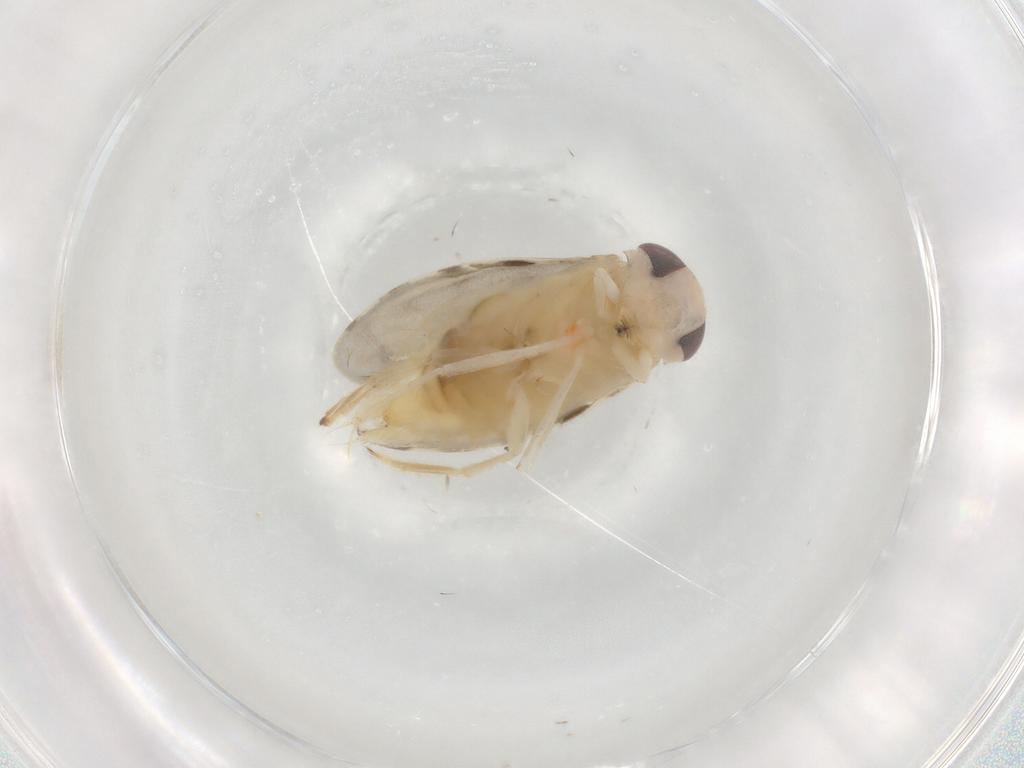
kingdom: Animalia
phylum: Arthropoda
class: Insecta
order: Hemiptera
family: Corixidae
